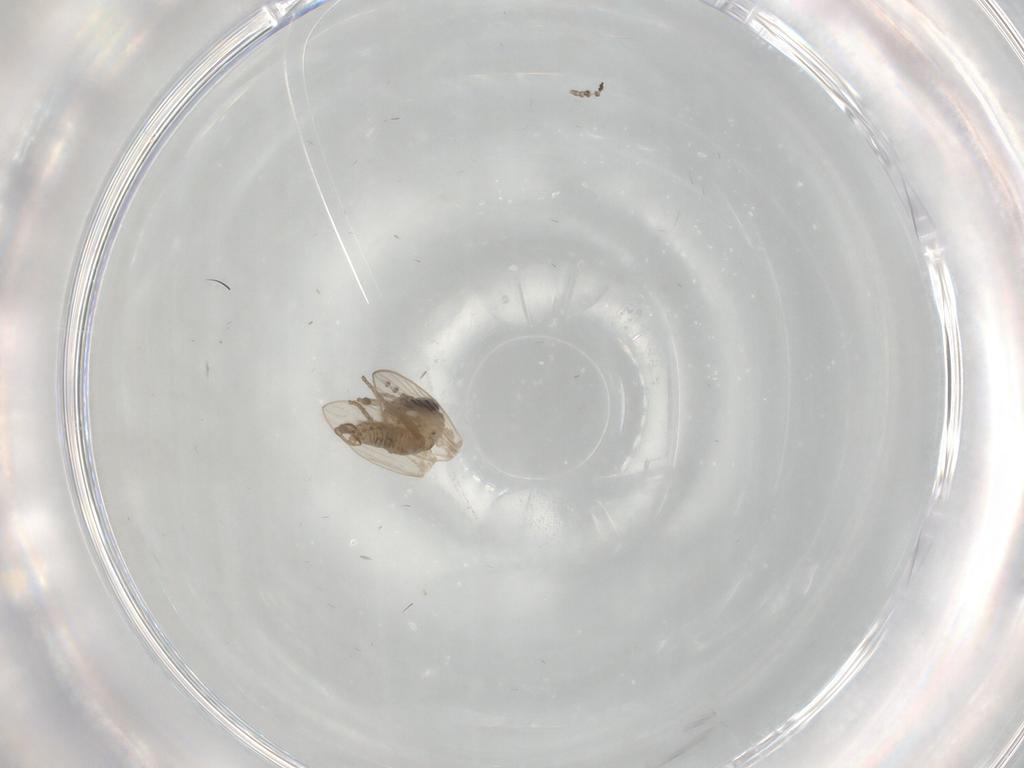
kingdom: Animalia
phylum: Arthropoda
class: Insecta
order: Diptera
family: Psychodidae
